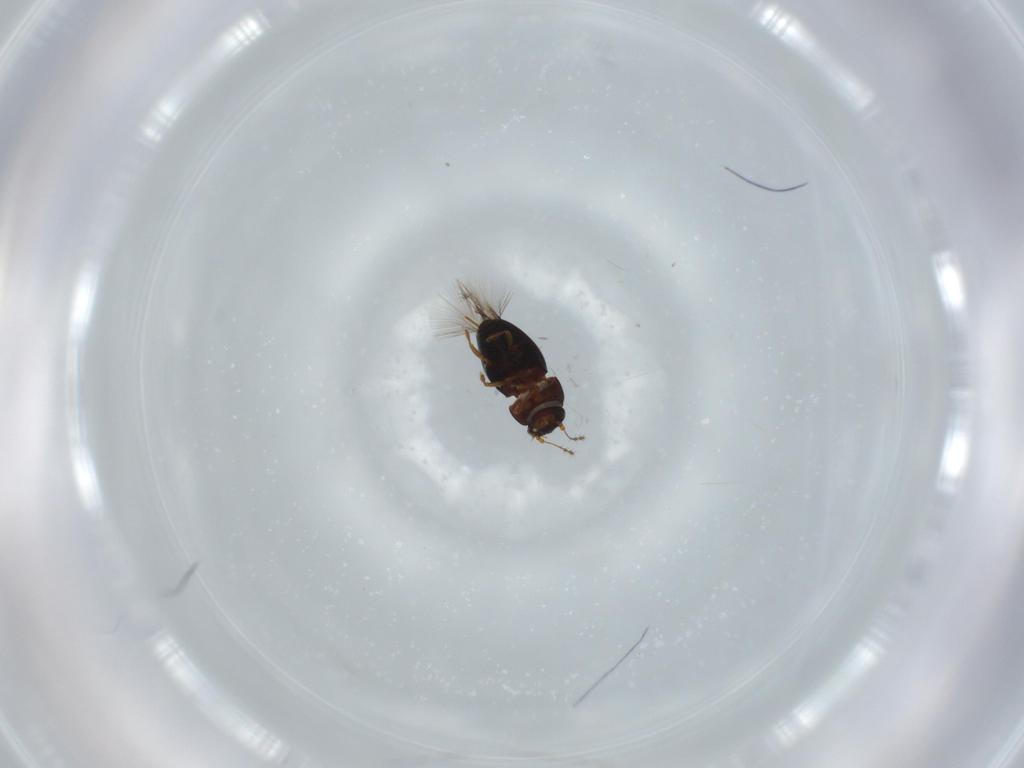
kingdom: Animalia
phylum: Arthropoda
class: Insecta
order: Coleoptera
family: Ptiliidae
